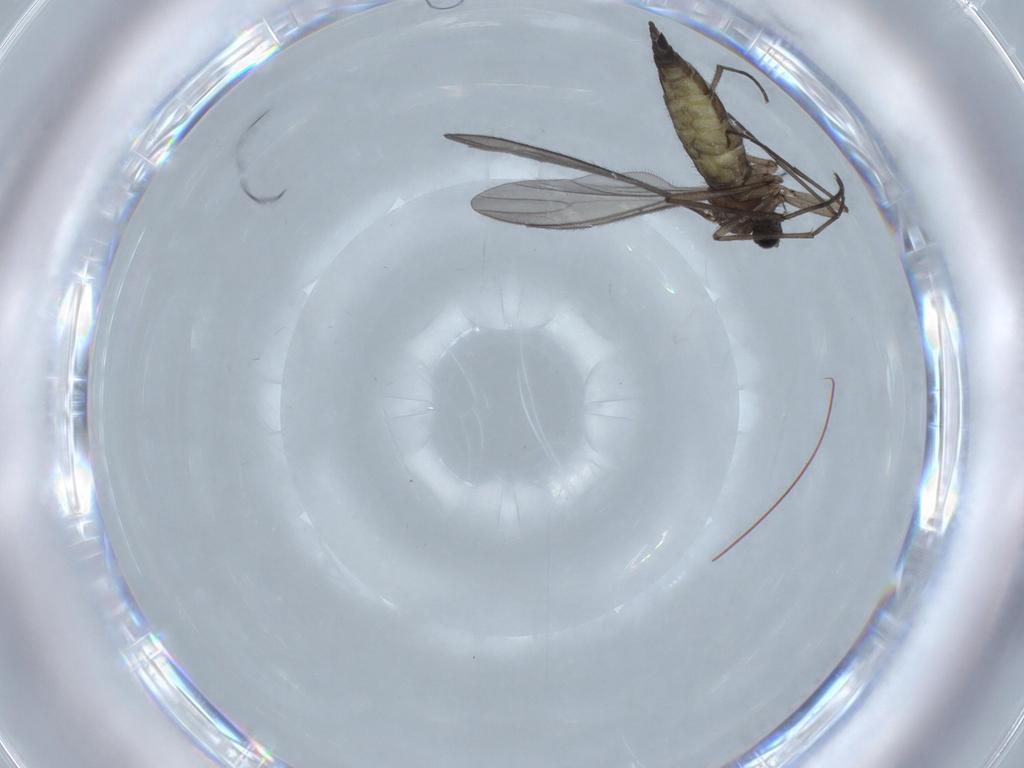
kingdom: Animalia
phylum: Arthropoda
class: Insecta
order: Diptera
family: Sciaridae
